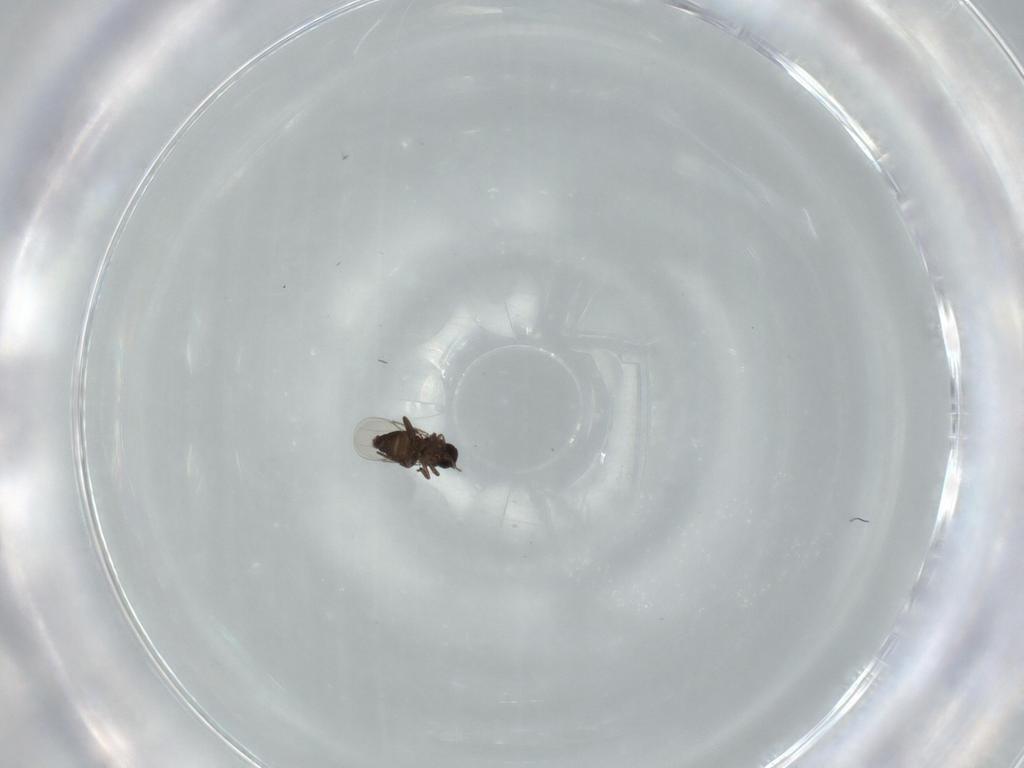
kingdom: Animalia
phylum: Arthropoda
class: Insecta
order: Diptera
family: Phoridae
